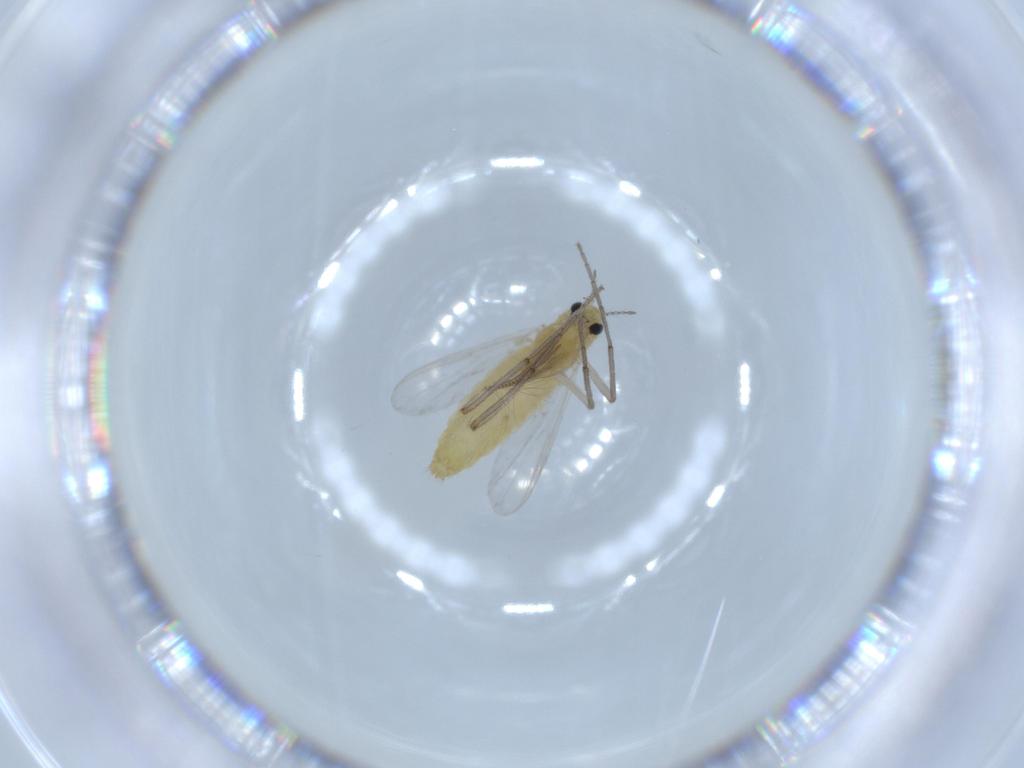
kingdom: Animalia
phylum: Arthropoda
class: Insecta
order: Diptera
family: Chironomidae
